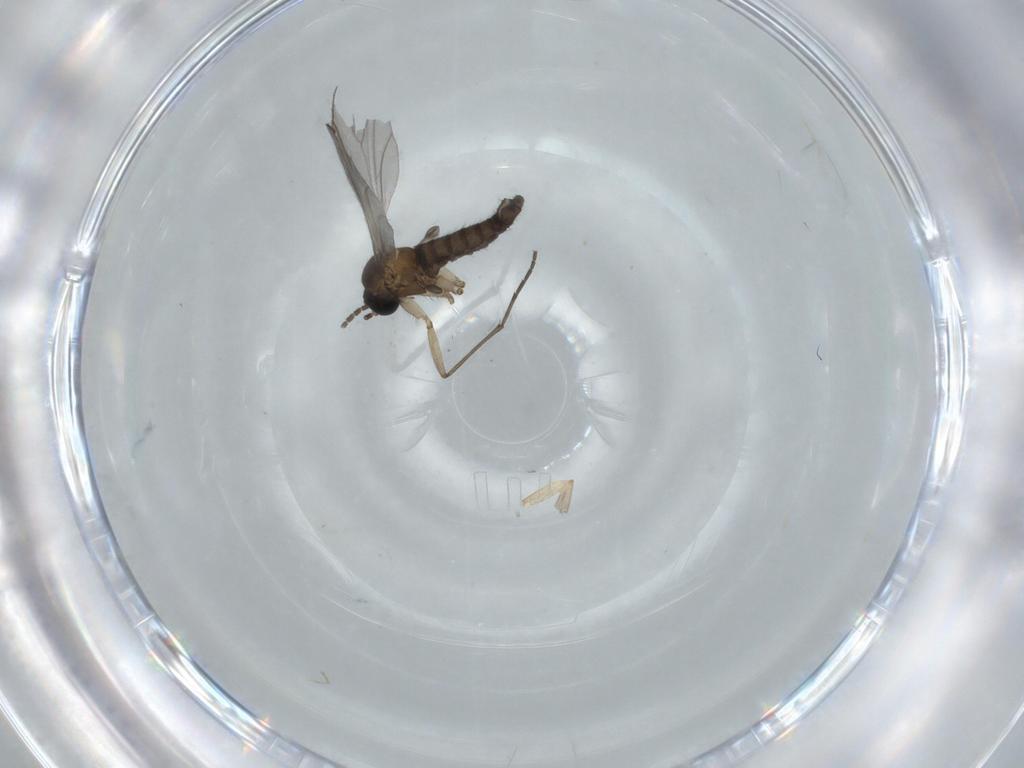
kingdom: Animalia
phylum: Arthropoda
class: Insecta
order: Diptera
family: Sciaridae
